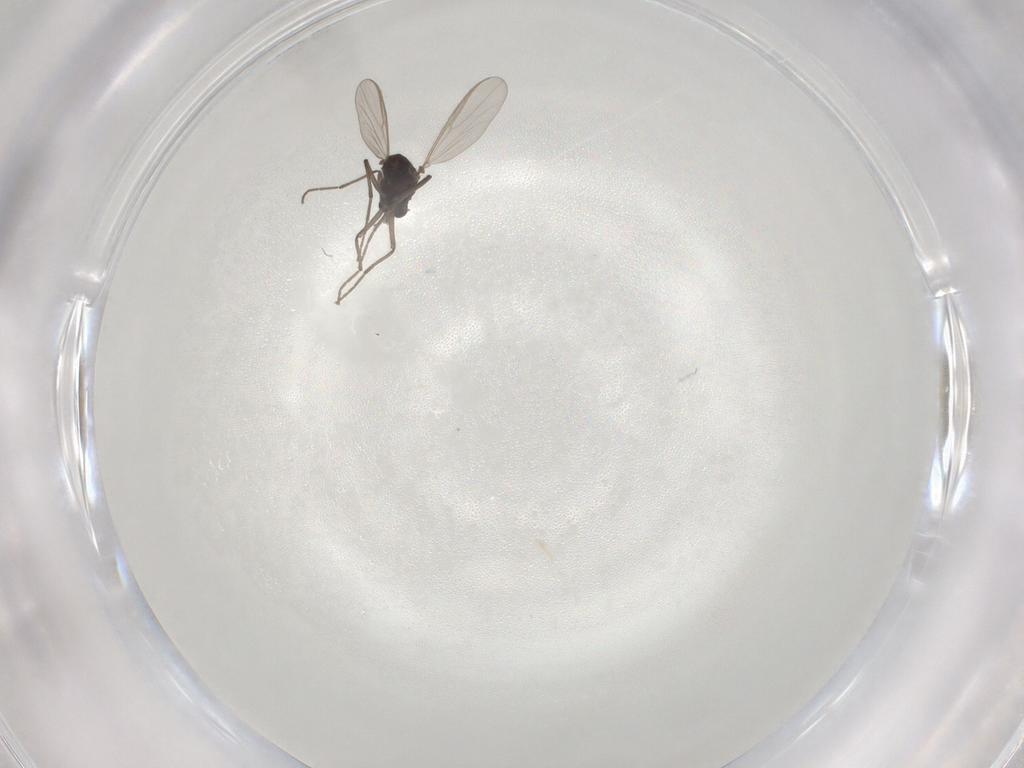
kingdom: Animalia
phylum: Arthropoda
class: Insecta
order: Diptera
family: Chironomidae
